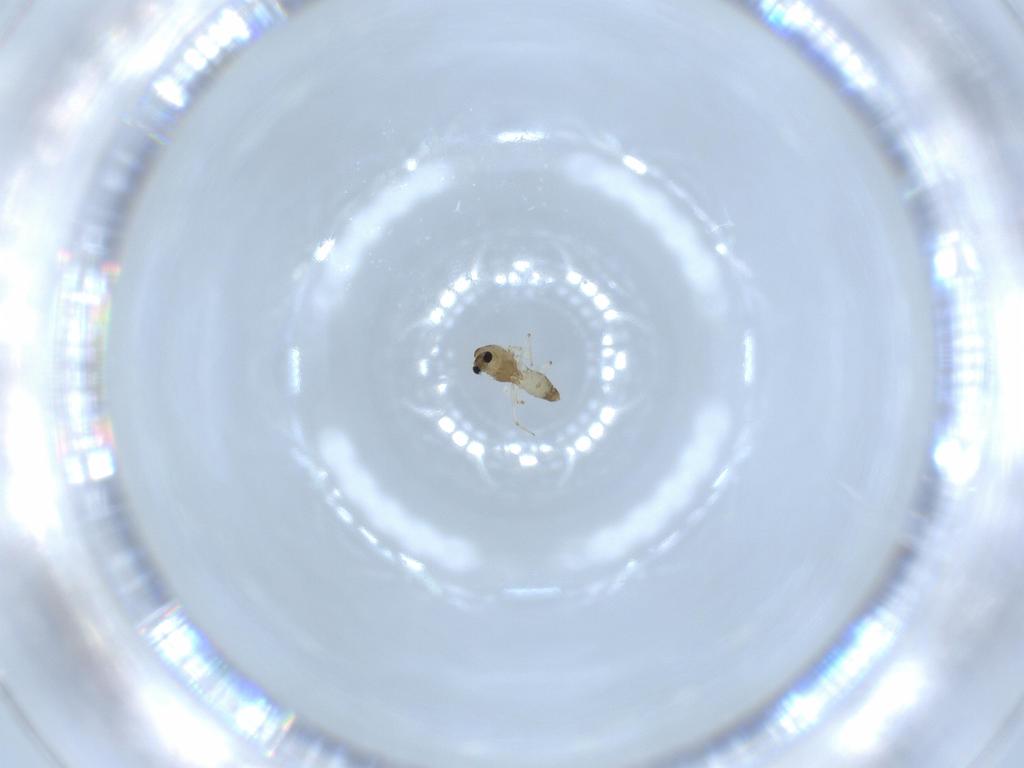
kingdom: Animalia
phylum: Arthropoda
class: Insecta
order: Diptera
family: Chironomidae
